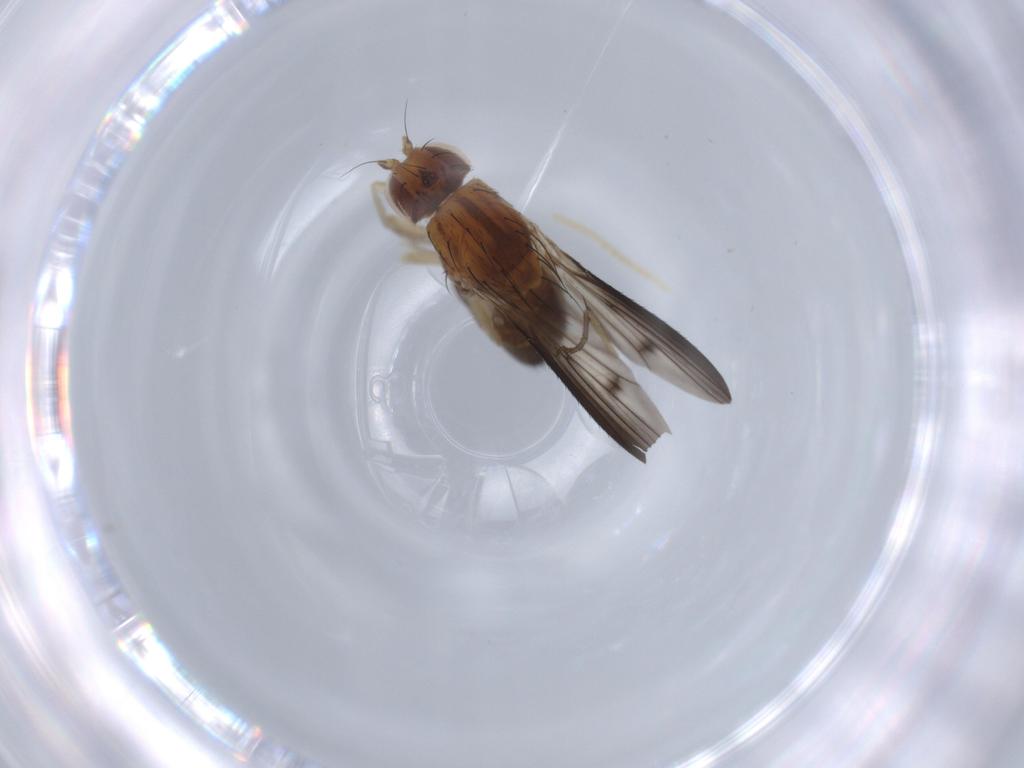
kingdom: Animalia
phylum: Arthropoda
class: Insecta
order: Diptera
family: Heleomyzidae
